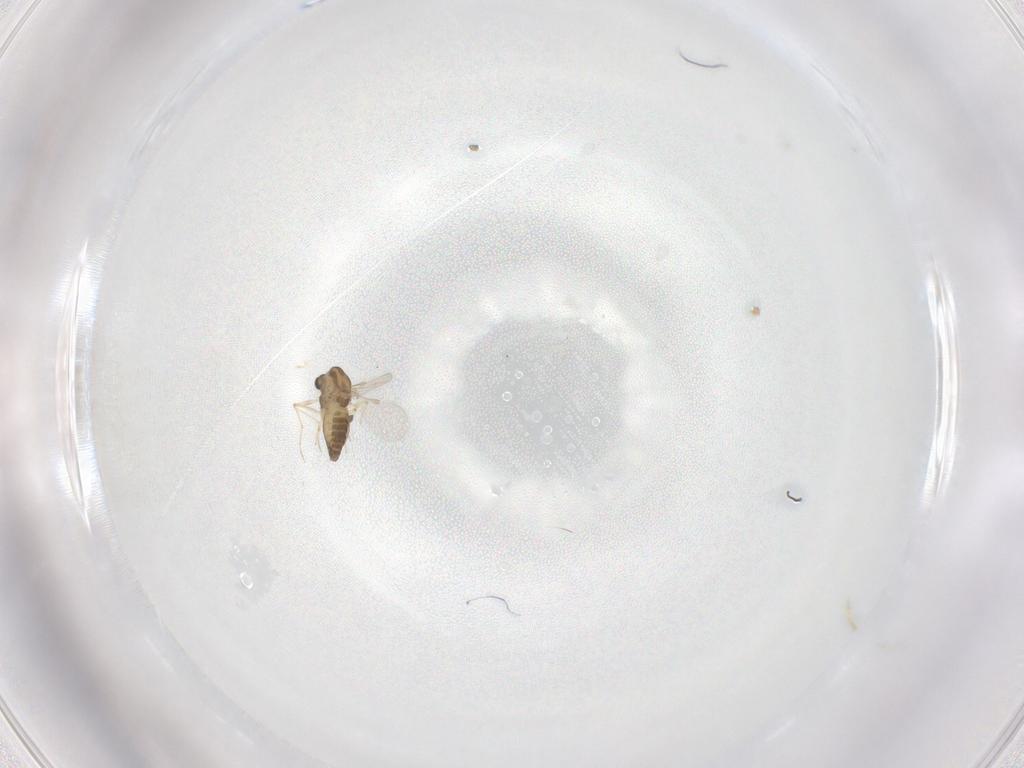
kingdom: Animalia
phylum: Arthropoda
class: Insecta
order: Diptera
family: Chironomidae
